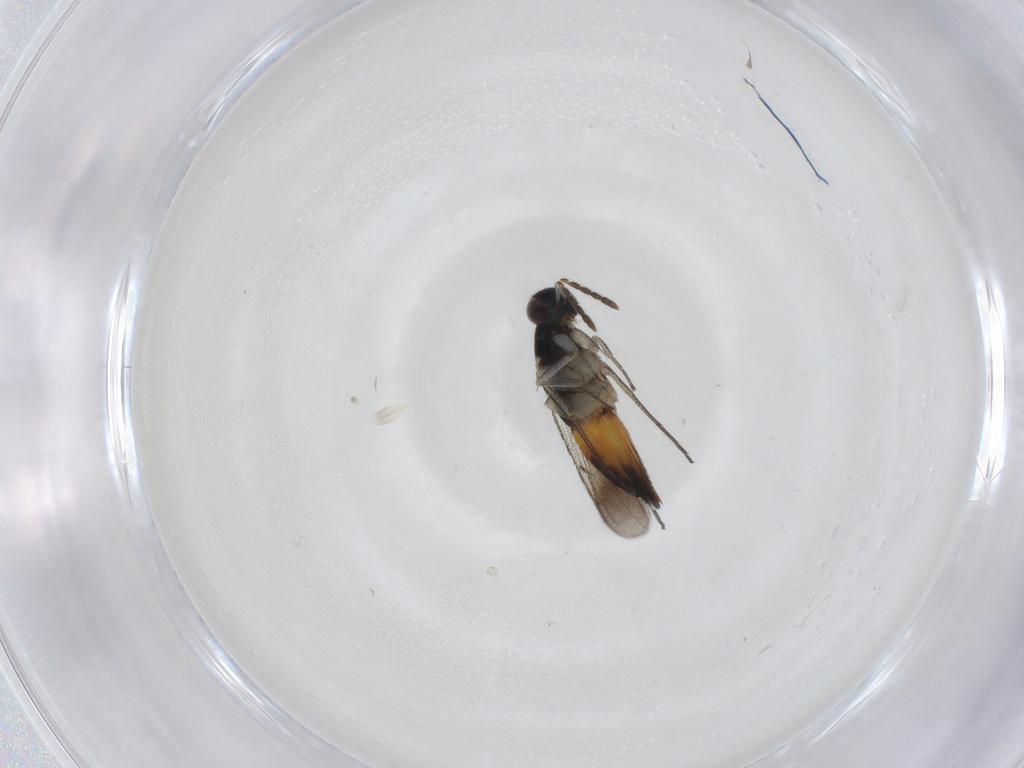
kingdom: Animalia
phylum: Arthropoda
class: Insecta
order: Hymenoptera
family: Eulophidae
